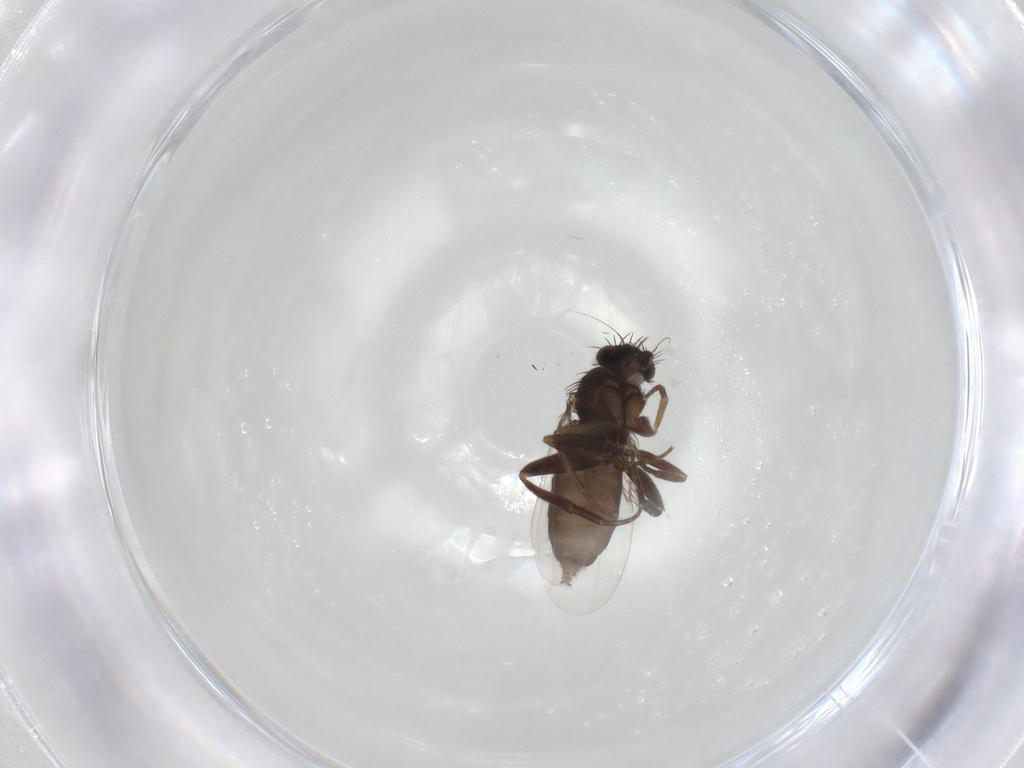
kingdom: Animalia
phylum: Arthropoda
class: Insecta
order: Diptera
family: Phoridae
